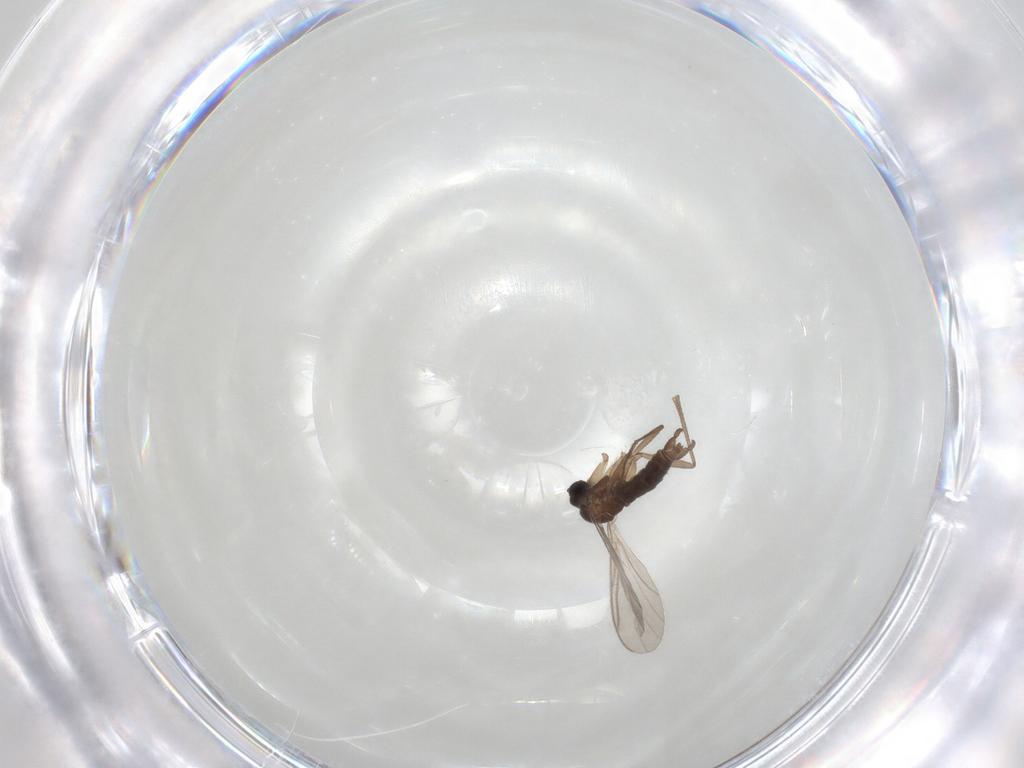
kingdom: Animalia
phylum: Arthropoda
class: Insecta
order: Diptera
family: Sciaridae
